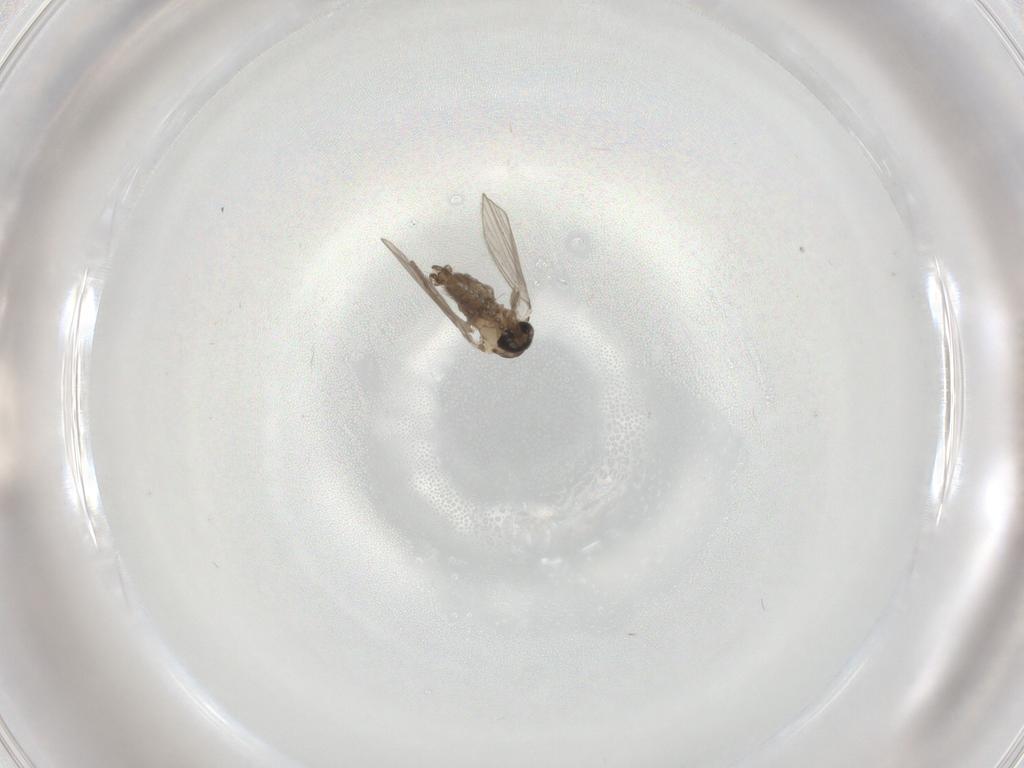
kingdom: Animalia
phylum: Arthropoda
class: Insecta
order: Diptera
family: Psychodidae
